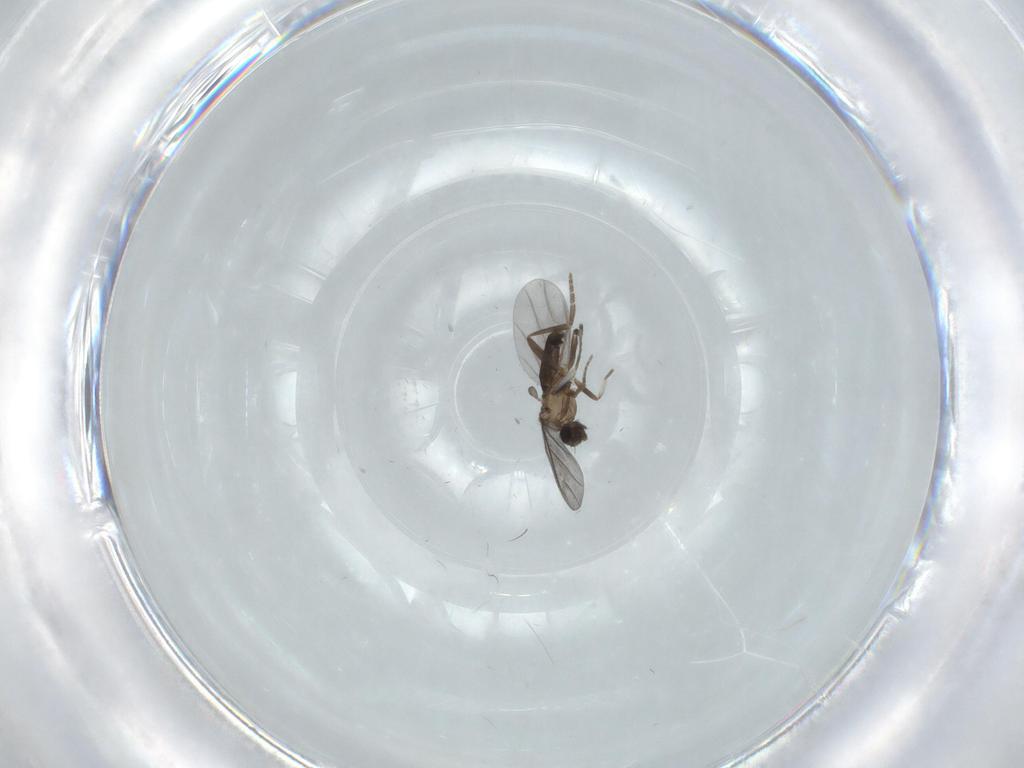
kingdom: Animalia
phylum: Arthropoda
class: Insecta
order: Diptera
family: Phoridae
